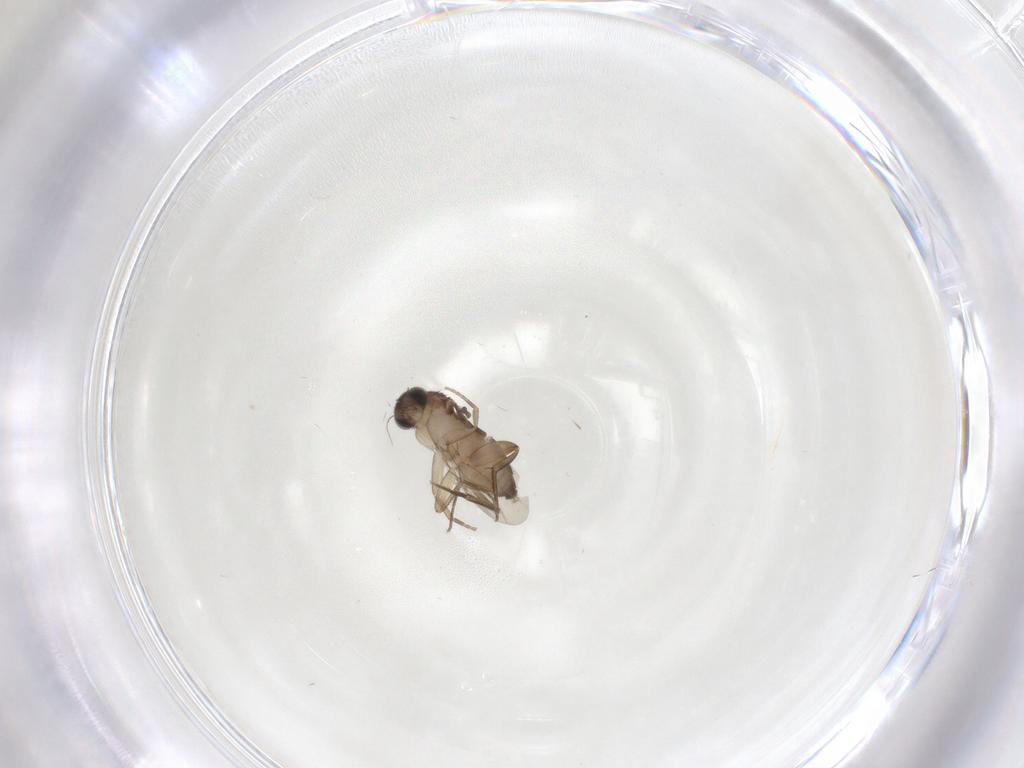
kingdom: Animalia
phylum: Arthropoda
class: Insecta
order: Diptera
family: Phoridae
